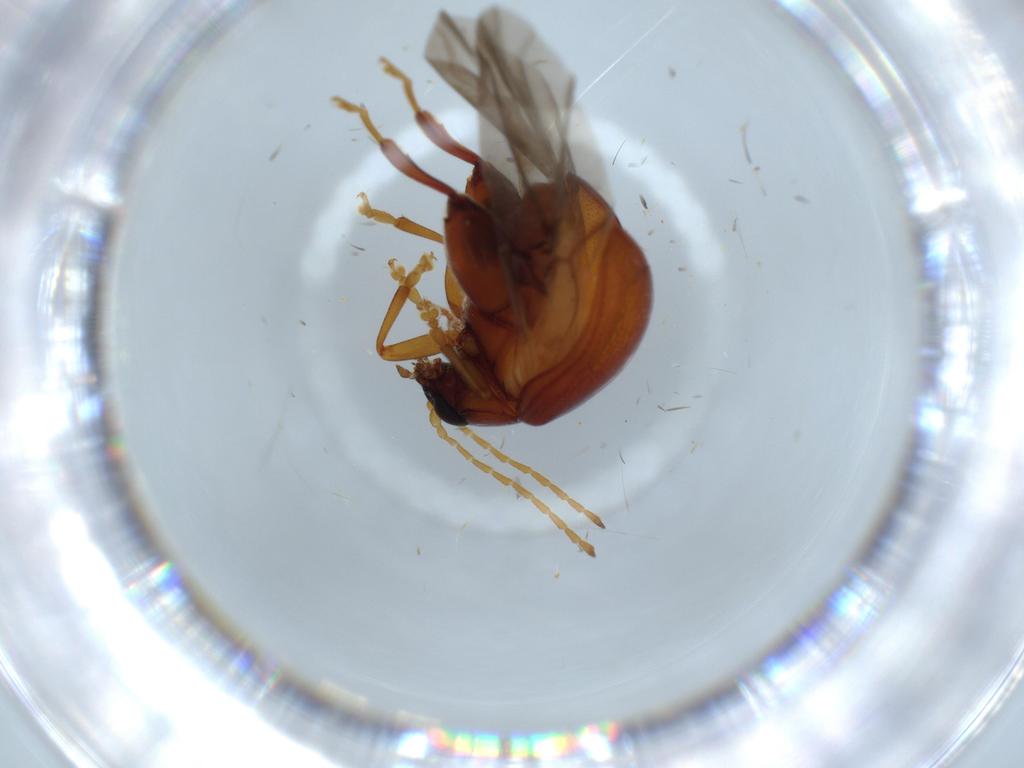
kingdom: Animalia
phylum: Arthropoda
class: Insecta
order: Coleoptera
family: Chrysomelidae
